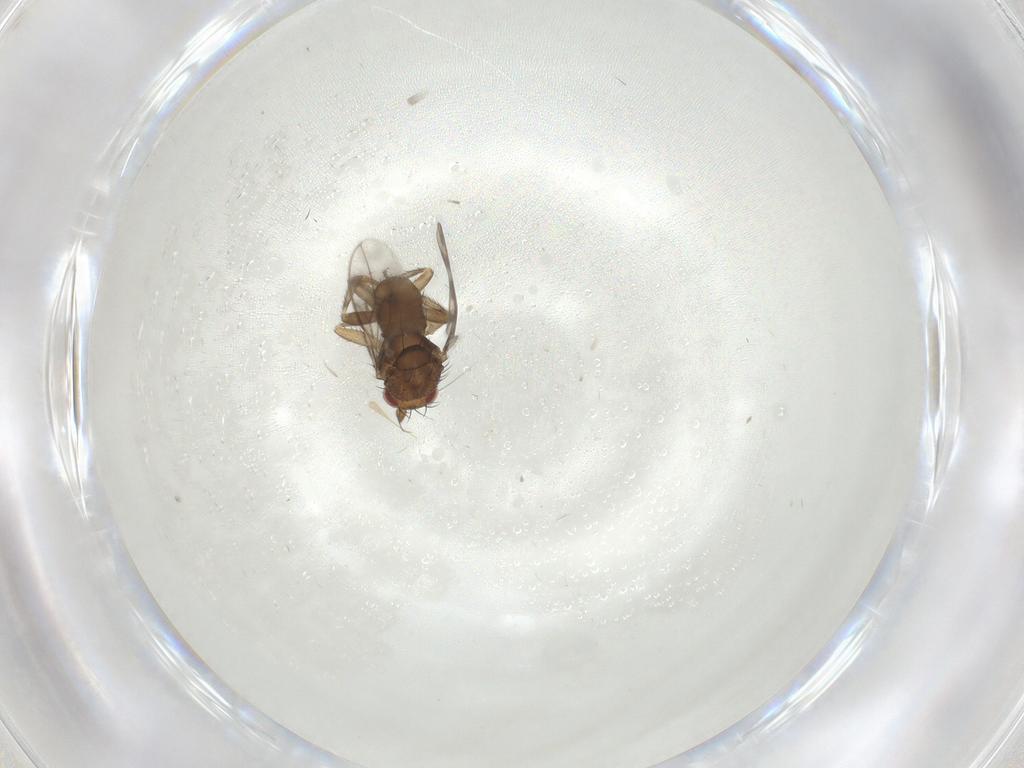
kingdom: Animalia
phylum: Arthropoda
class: Insecta
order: Diptera
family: Sphaeroceridae
